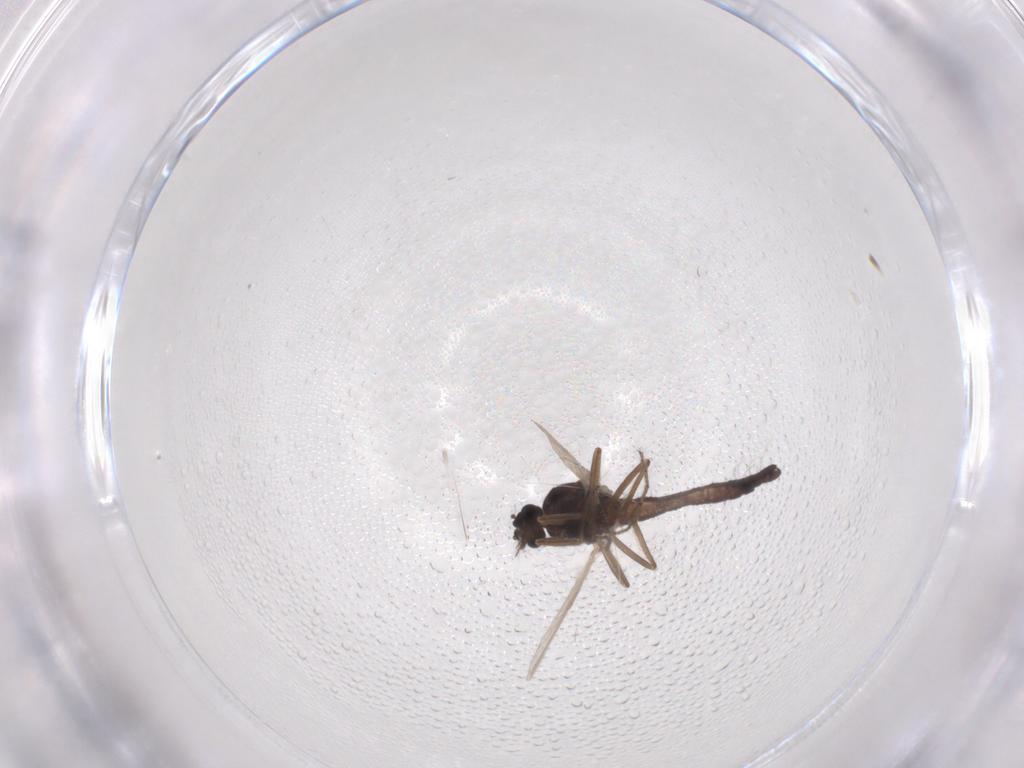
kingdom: Animalia
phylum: Arthropoda
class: Insecta
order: Diptera
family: Ceratopogonidae
